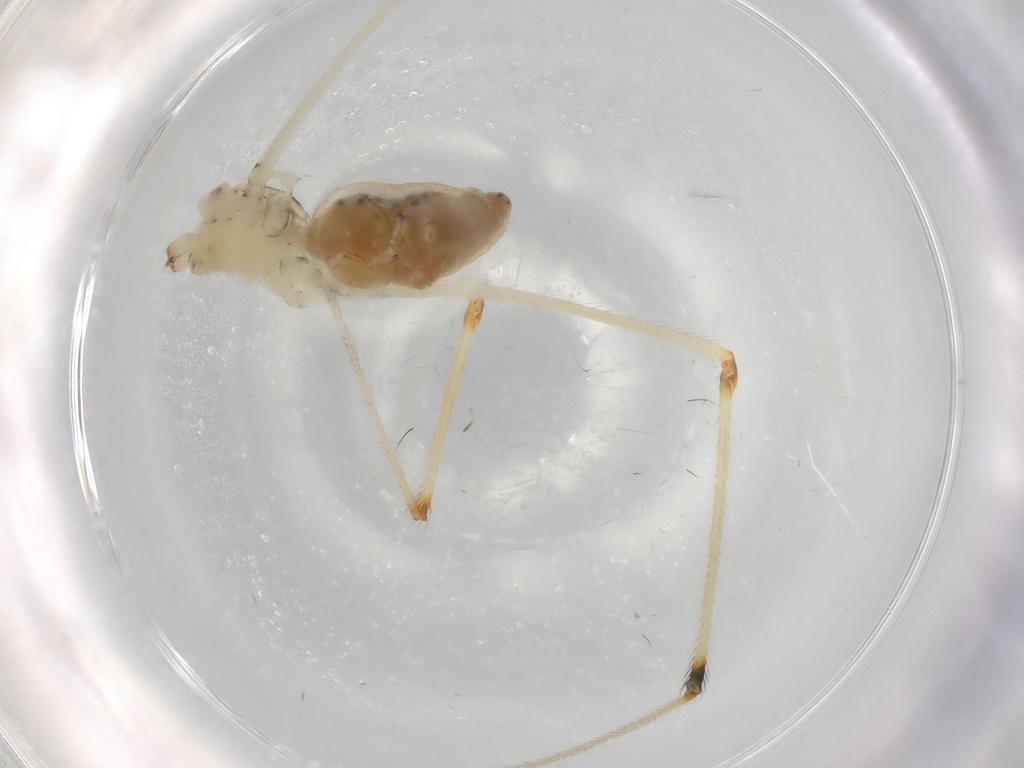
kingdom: Animalia
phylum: Arthropoda
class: Arachnida
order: Araneae
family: Pholcidae
